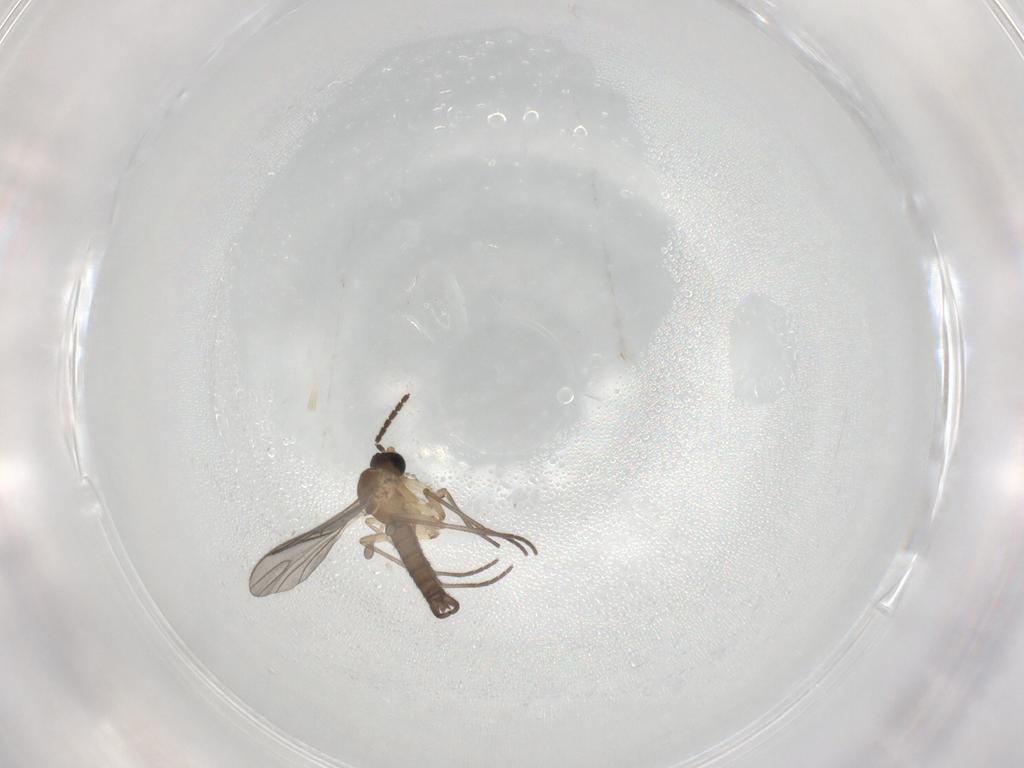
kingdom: Animalia
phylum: Arthropoda
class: Insecta
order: Diptera
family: Sciaridae
